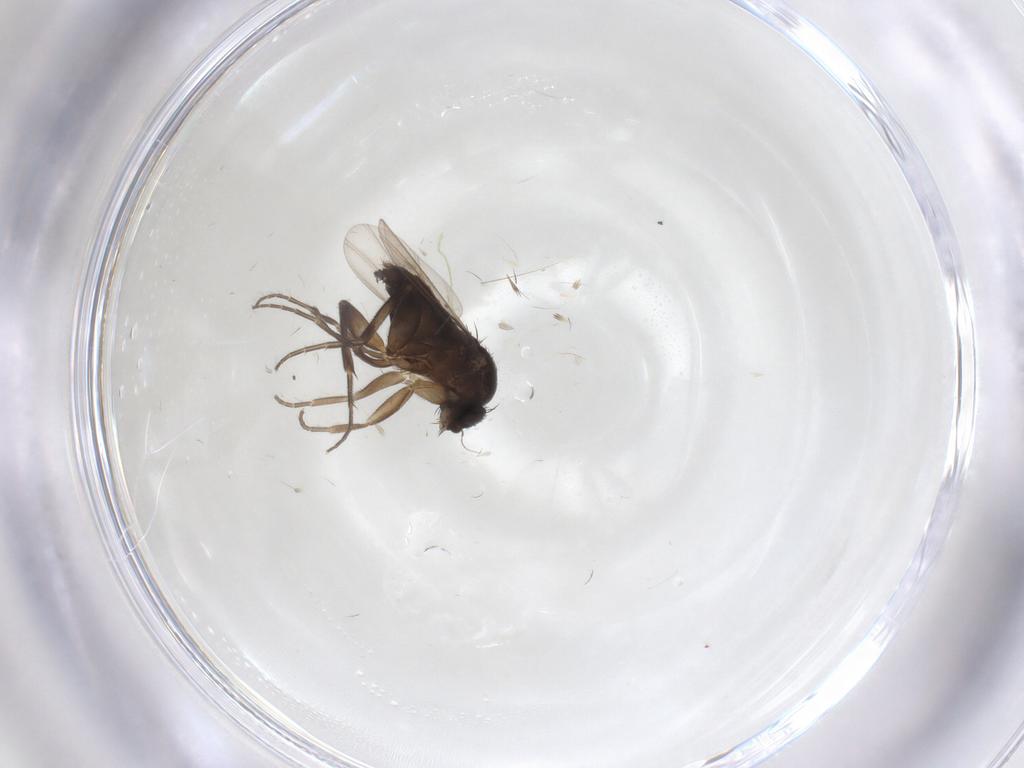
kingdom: Animalia
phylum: Arthropoda
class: Insecta
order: Diptera
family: Phoridae
